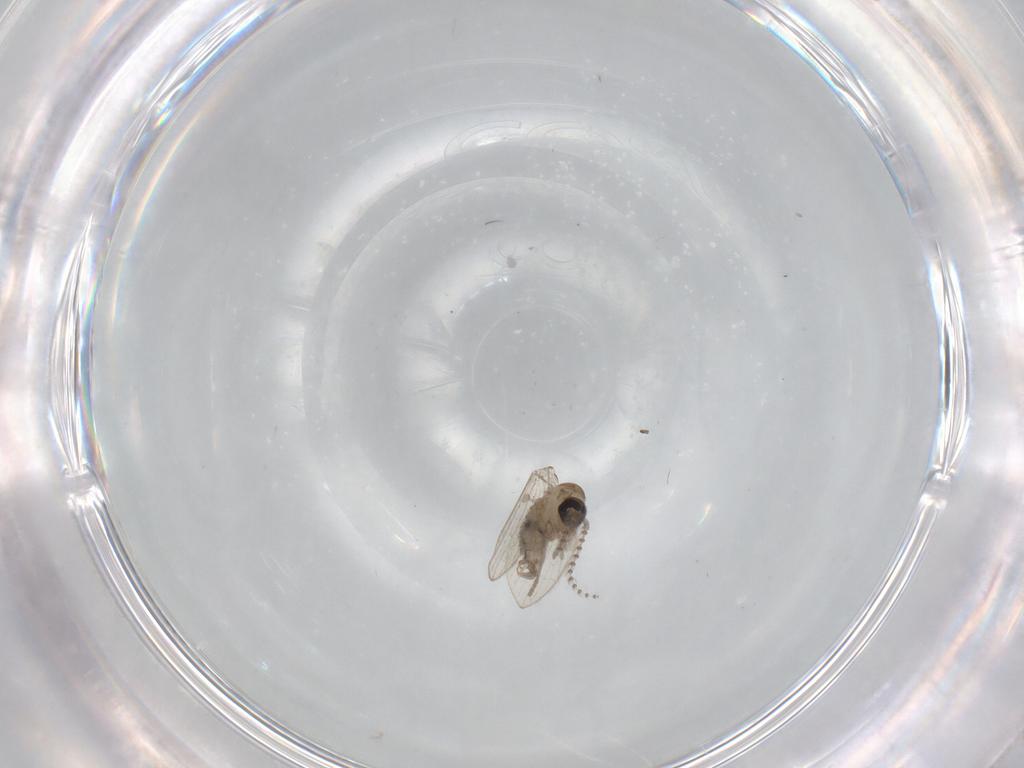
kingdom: Animalia
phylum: Arthropoda
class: Insecta
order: Diptera
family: Psychodidae
